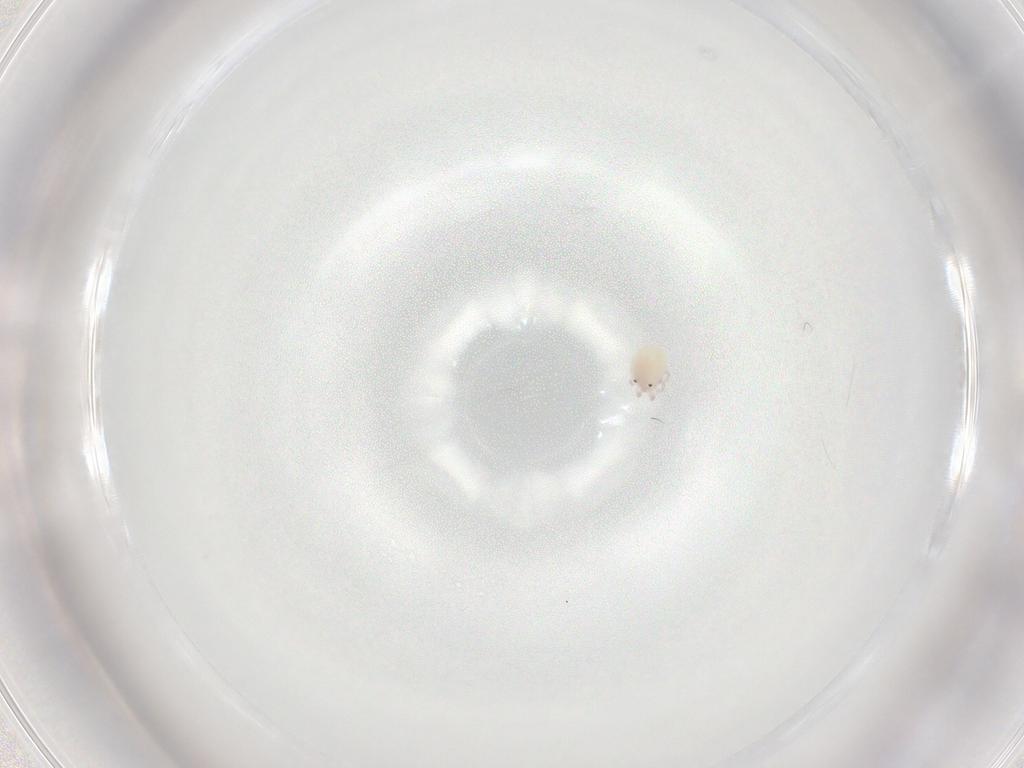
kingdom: Animalia
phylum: Arthropoda
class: Arachnida
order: Trombidiformes
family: Lebertiidae
